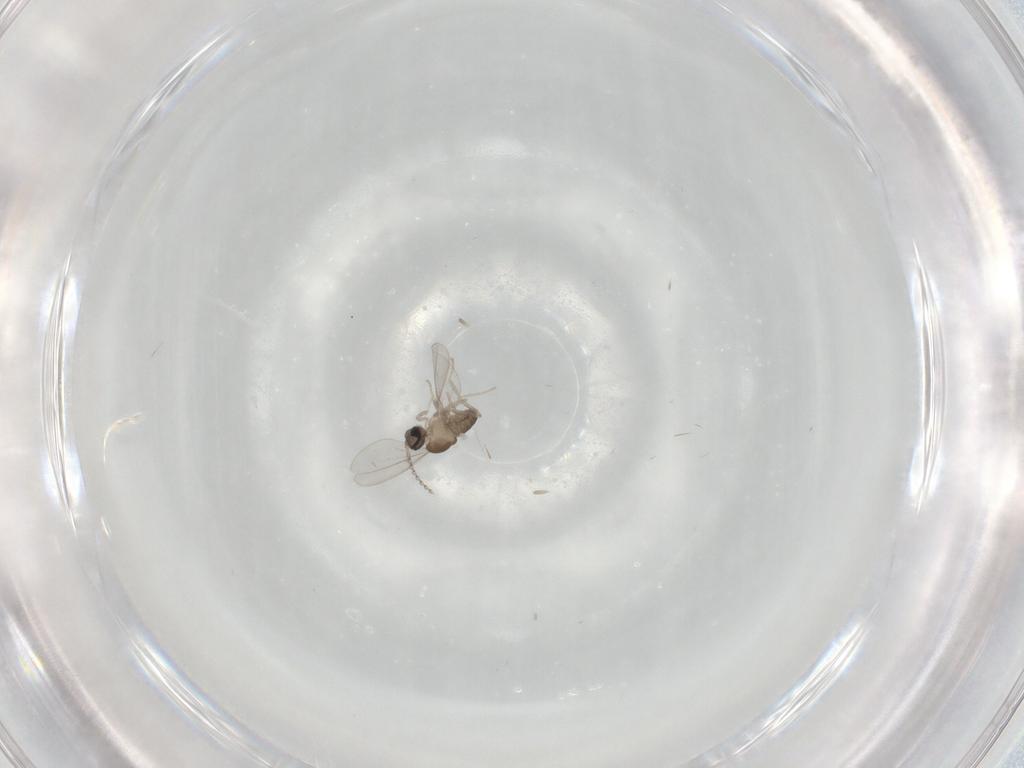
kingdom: Animalia
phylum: Arthropoda
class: Insecta
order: Diptera
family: Cecidomyiidae
